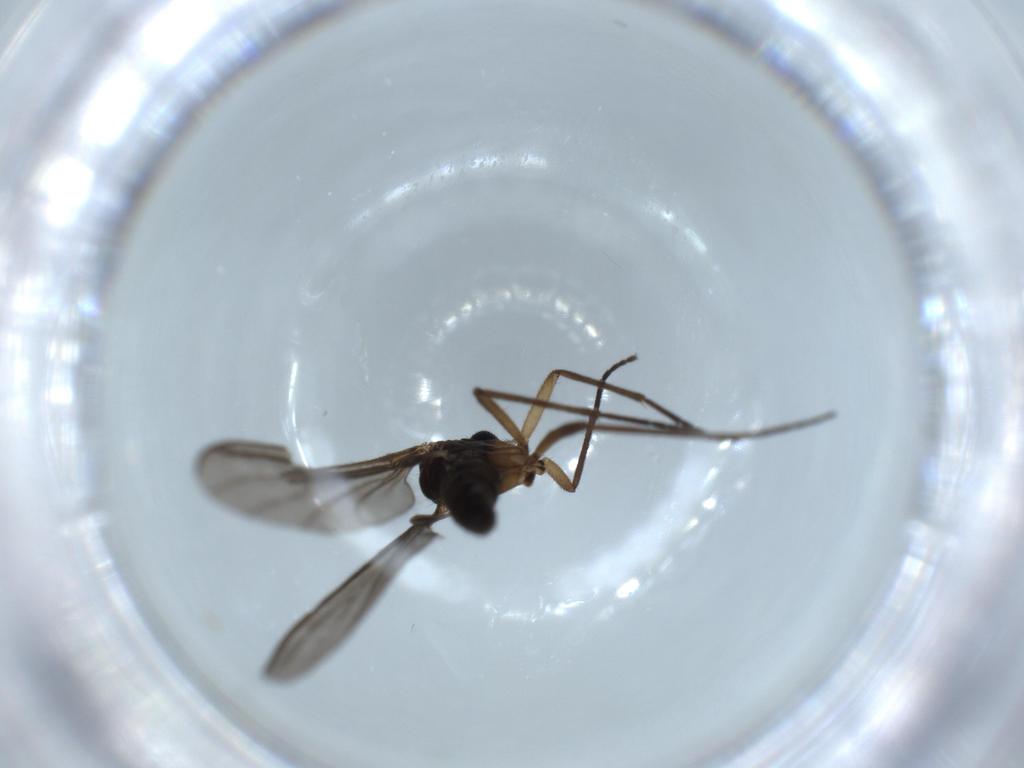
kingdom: Animalia
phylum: Arthropoda
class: Insecta
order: Diptera
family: Sciaridae
